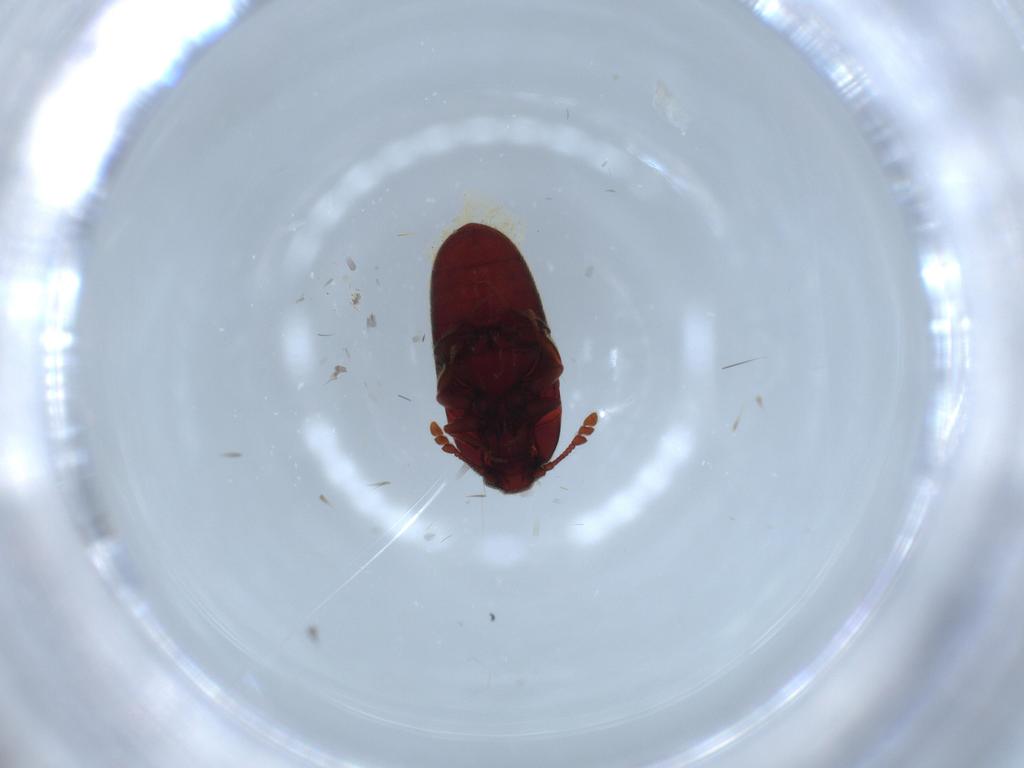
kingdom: Animalia
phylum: Arthropoda
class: Insecta
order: Coleoptera
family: Throscidae
